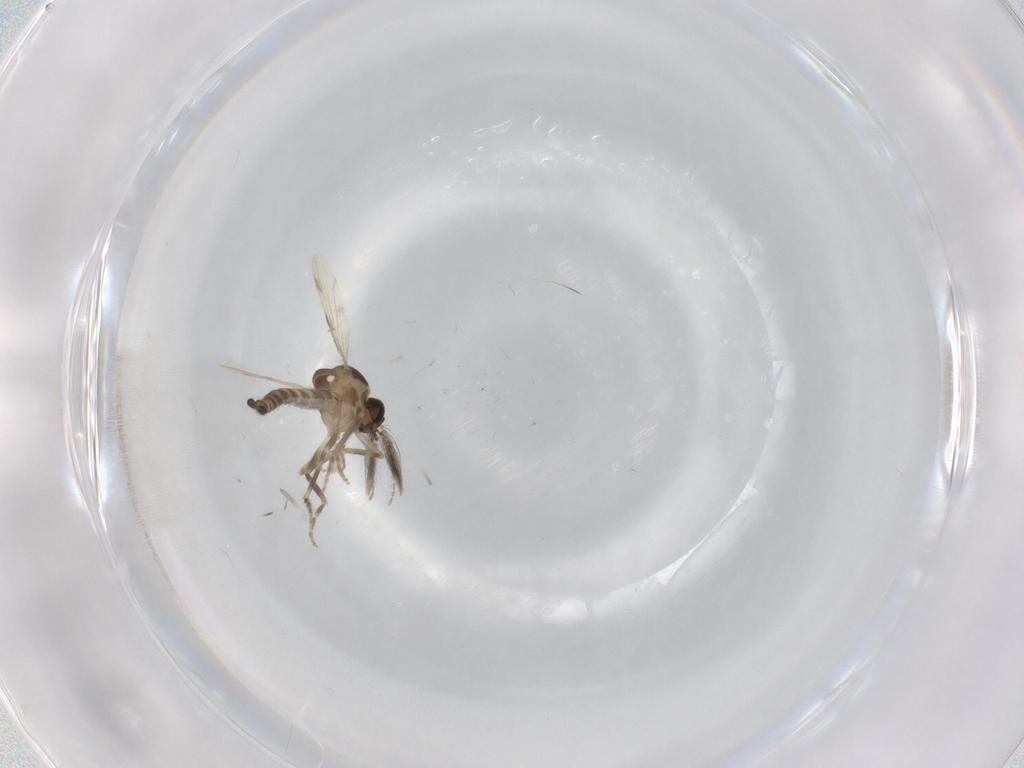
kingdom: Animalia
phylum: Arthropoda
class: Insecta
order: Diptera
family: Ceratopogonidae
